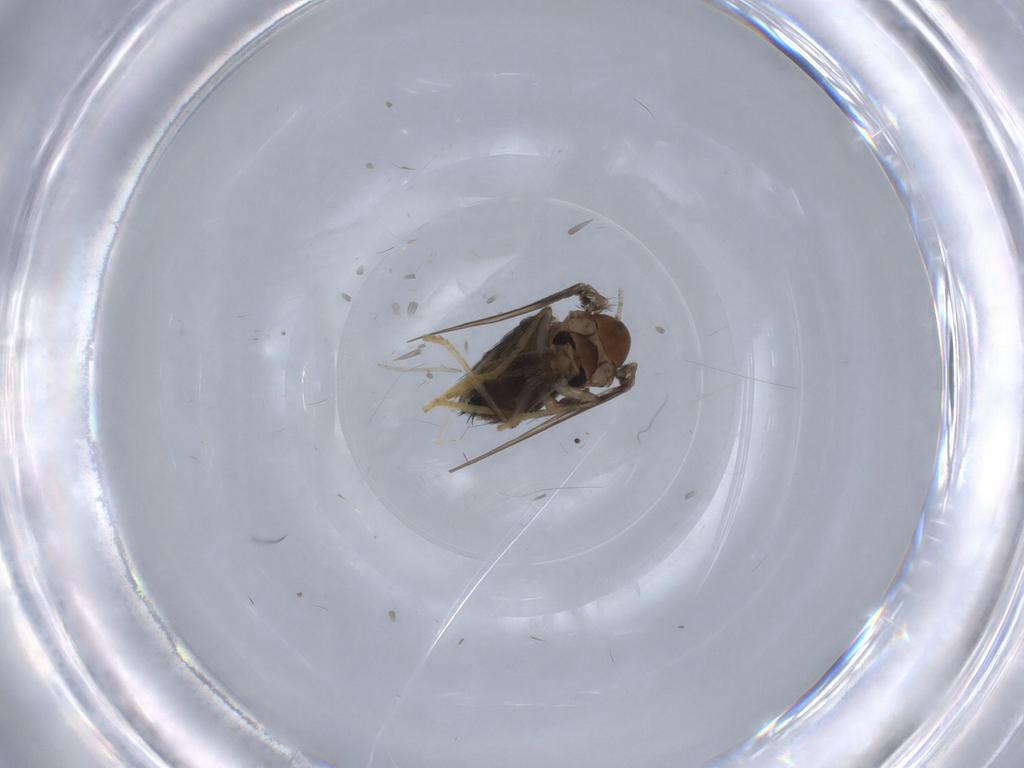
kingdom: Animalia
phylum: Arthropoda
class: Insecta
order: Diptera
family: Psychodidae
